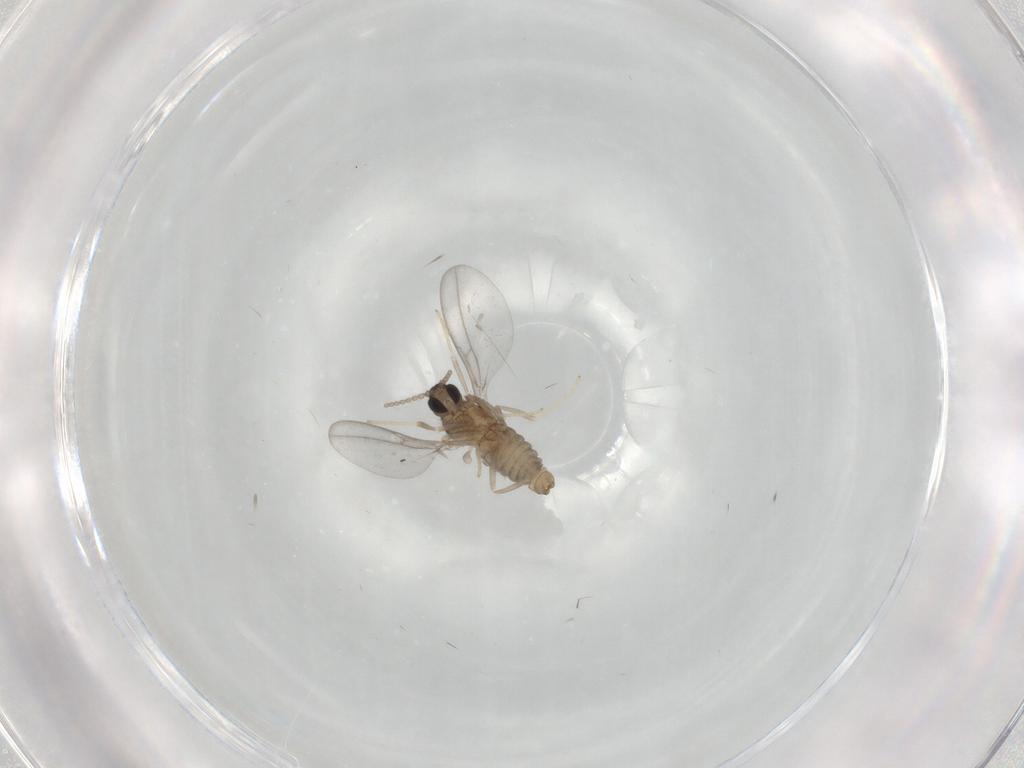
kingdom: Animalia
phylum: Arthropoda
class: Insecta
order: Diptera
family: Cecidomyiidae
